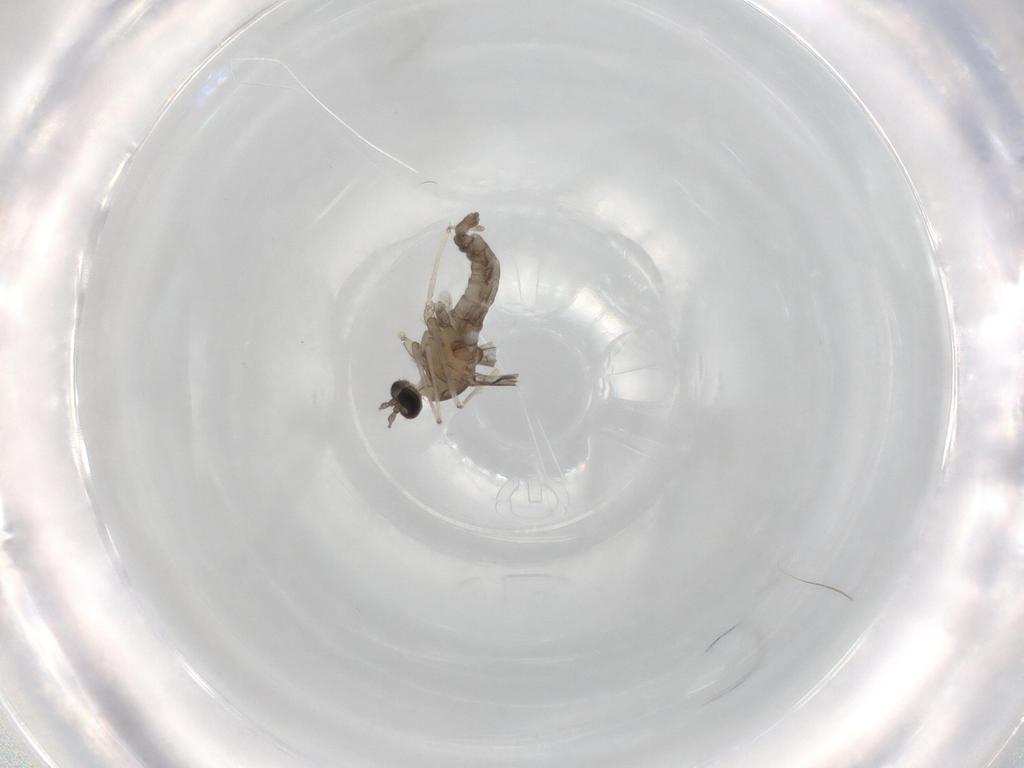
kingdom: Animalia
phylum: Arthropoda
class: Insecta
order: Diptera
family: Cecidomyiidae
